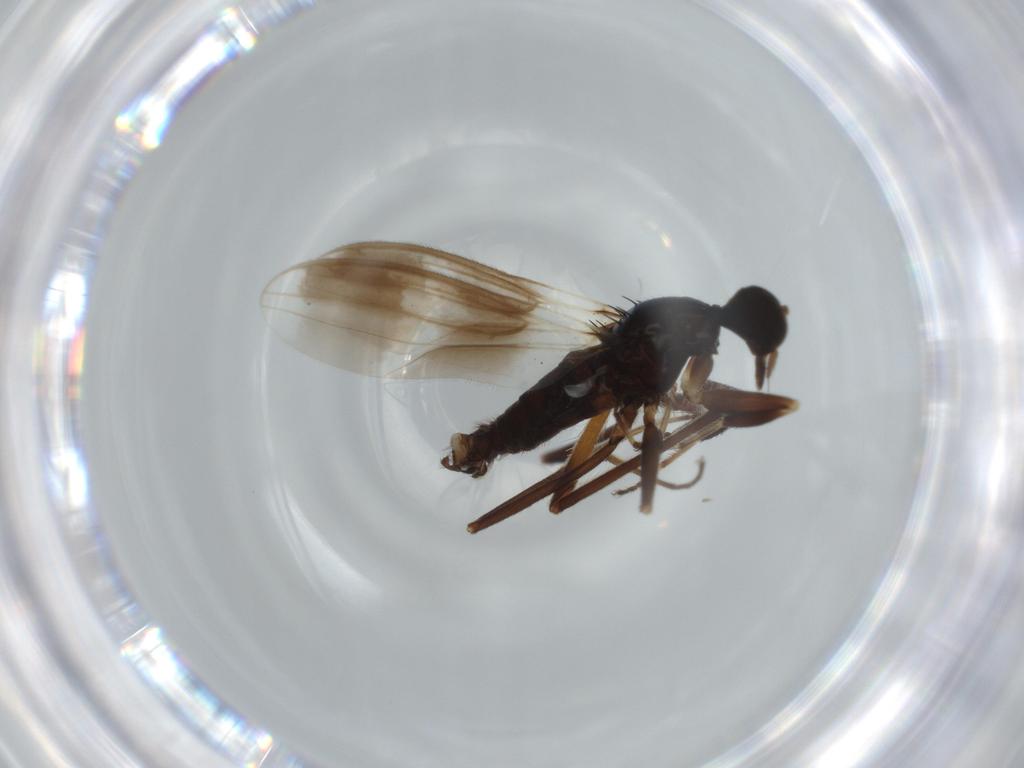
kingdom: Animalia
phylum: Arthropoda
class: Insecta
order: Diptera
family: Hybotidae
